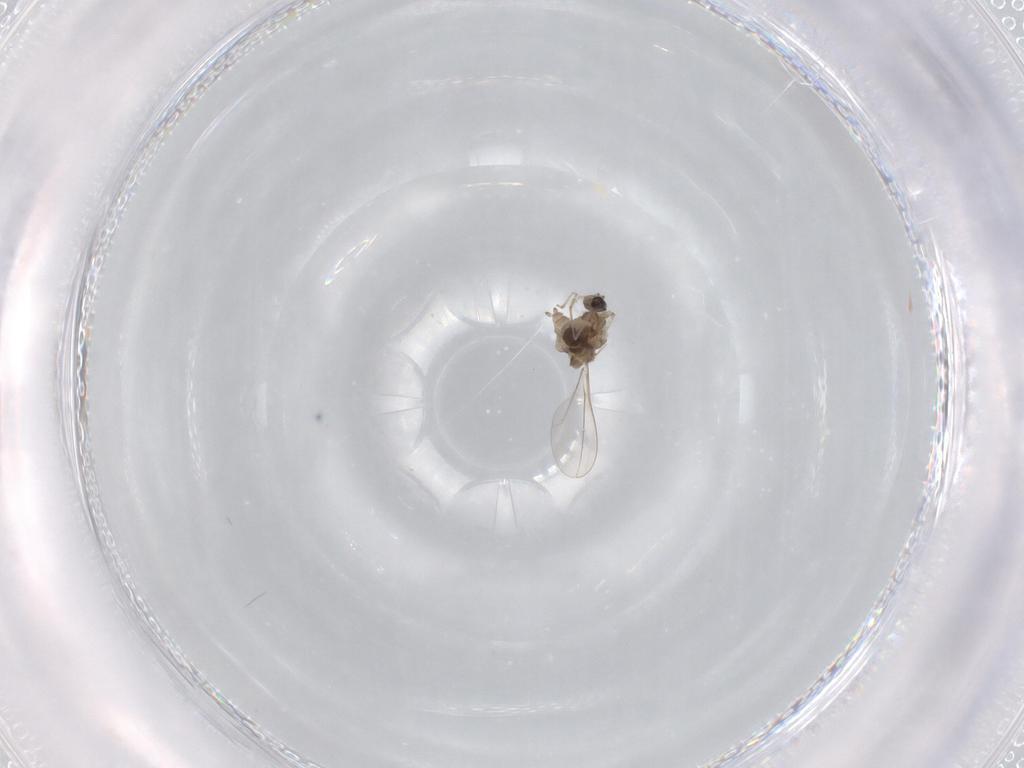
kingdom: Animalia
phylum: Arthropoda
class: Insecta
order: Diptera
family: Cecidomyiidae
